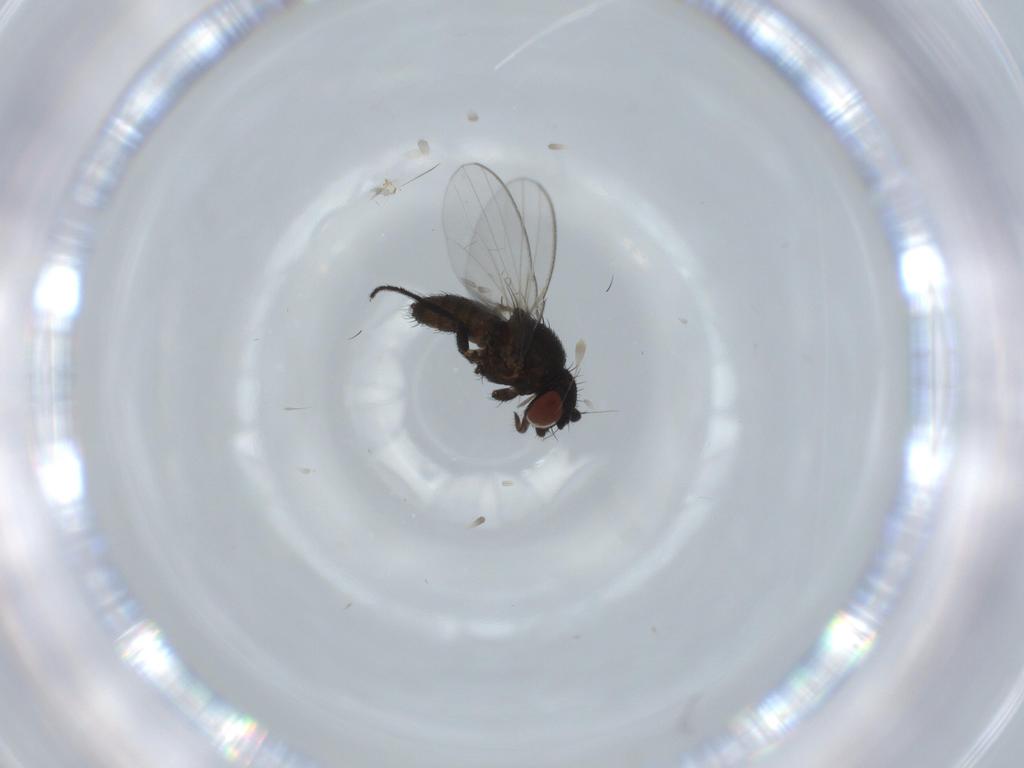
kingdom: Animalia
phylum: Arthropoda
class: Insecta
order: Diptera
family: Milichiidae
